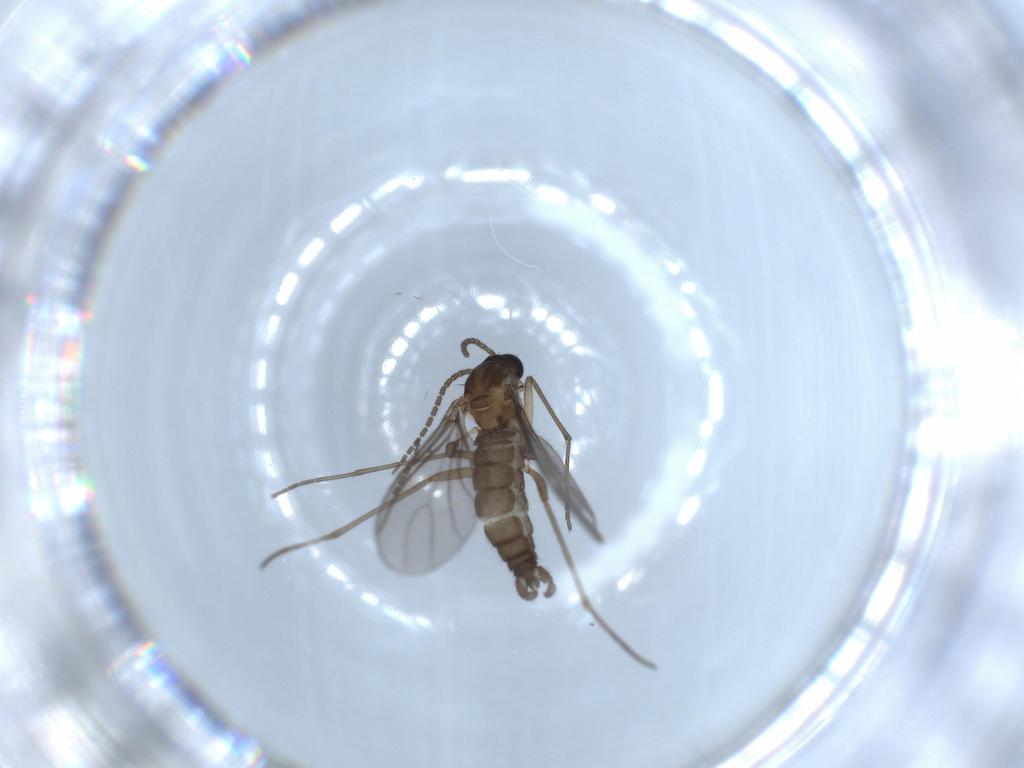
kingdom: Animalia
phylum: Arthropoda
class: Insecta
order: Diptera
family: Sciaridae
